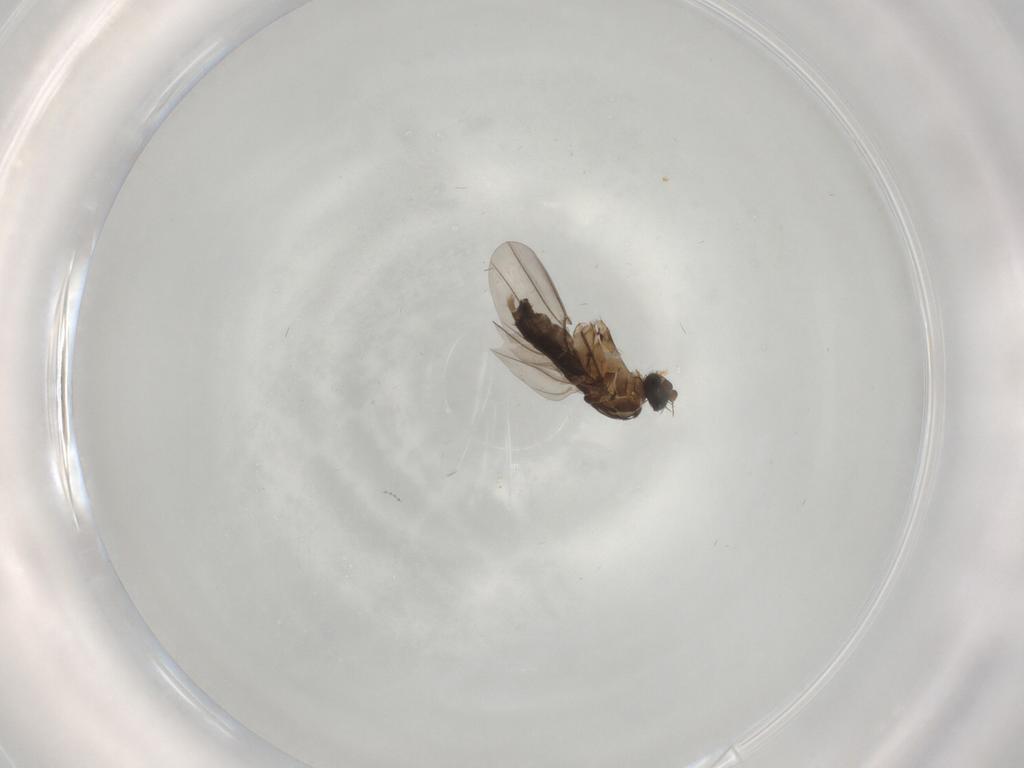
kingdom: Animalia
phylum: Arthropoda
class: Insecta
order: Diptera
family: Cecidomyiidae
